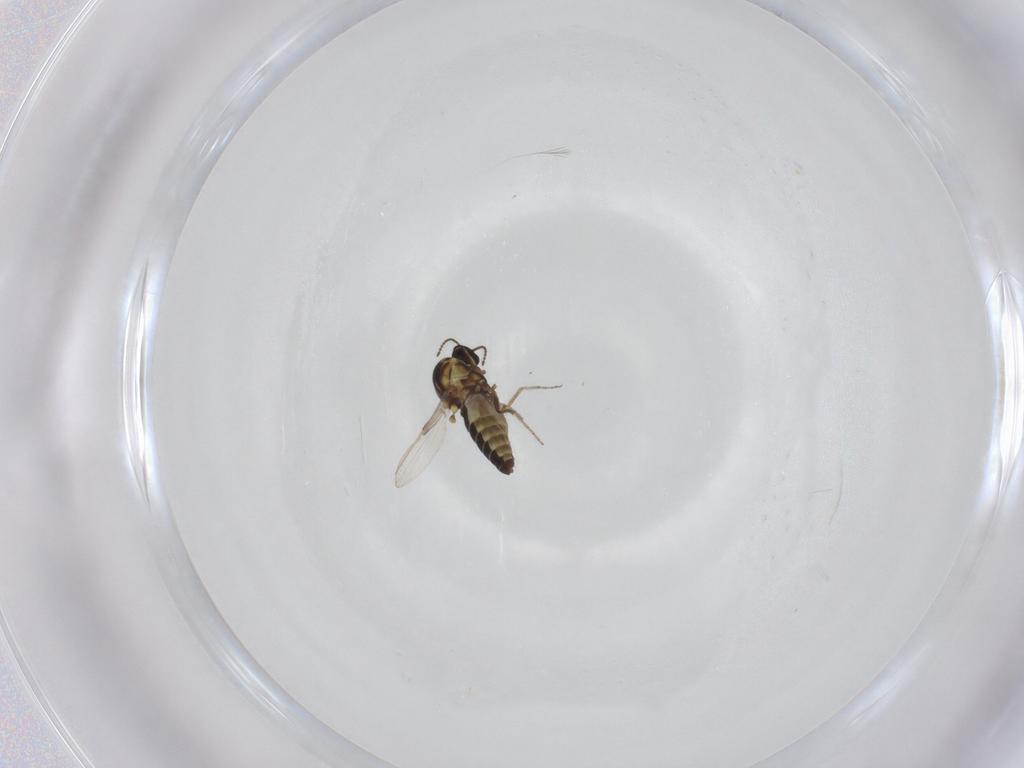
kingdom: Animalia
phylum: Arthropoda
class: Insecta
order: Diptera
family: Ceratopogonidae
